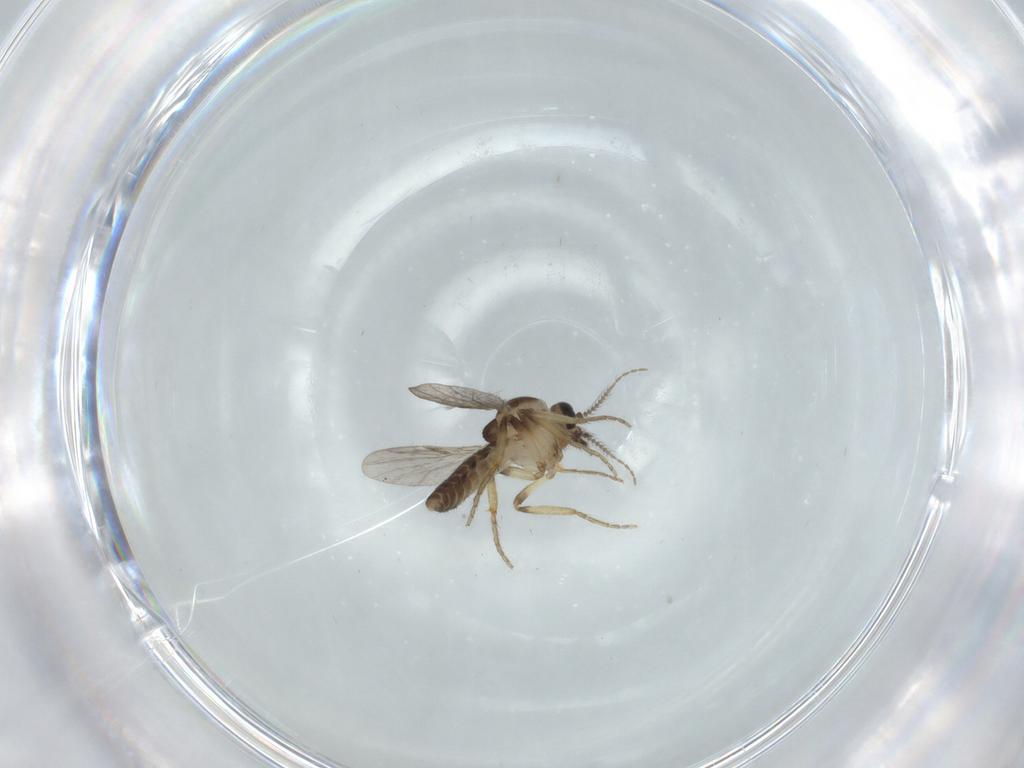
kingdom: Animalia
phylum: Arthropoda
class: Insecta
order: Diptera
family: Ceratopogonidae
